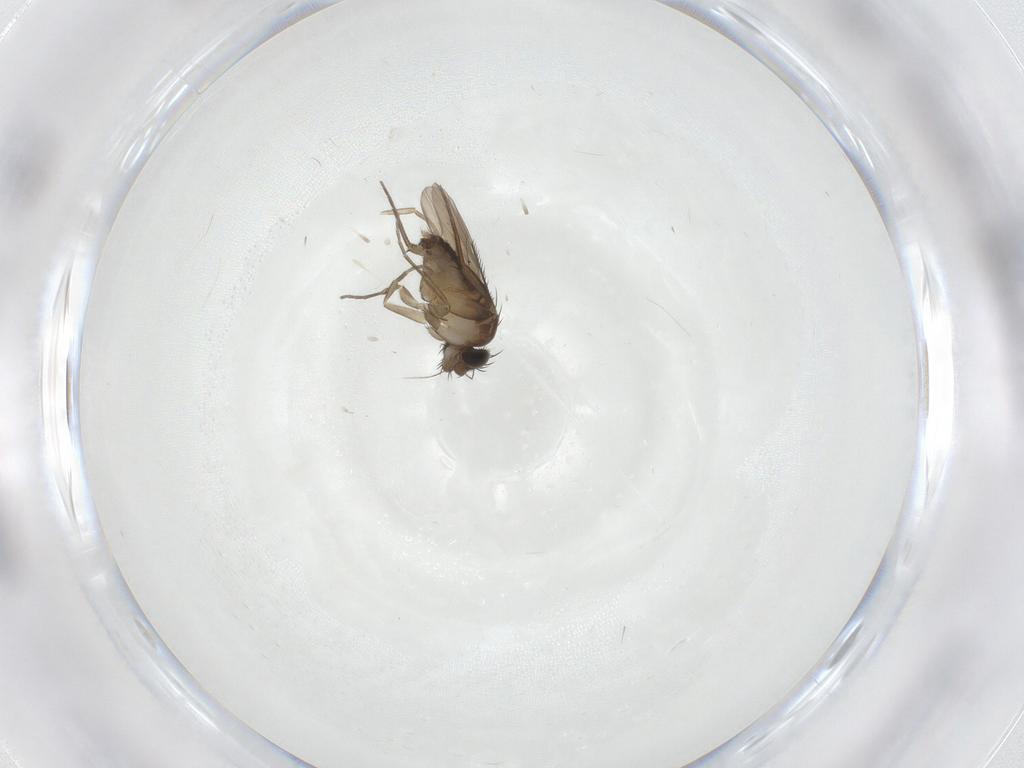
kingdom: Animalia
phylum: Arthropoda
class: Insecta
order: Diptera
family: Phoridae
